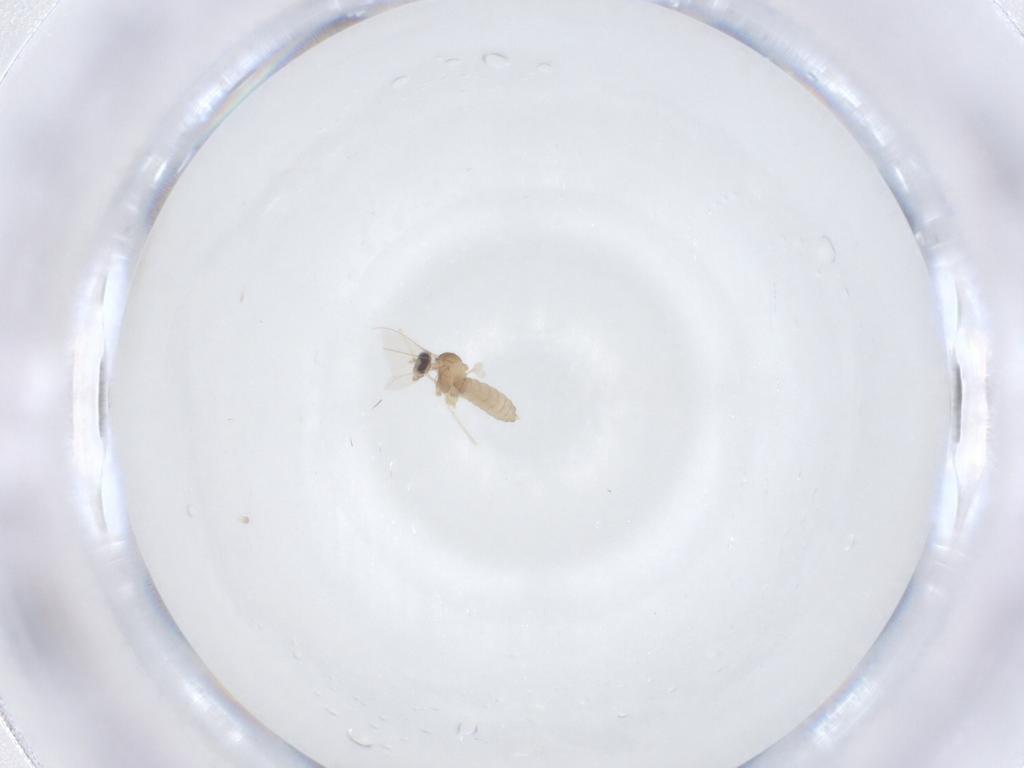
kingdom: Animalia
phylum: Arthropoda
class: Insecta
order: Diptera
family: Cecidomyiidae
